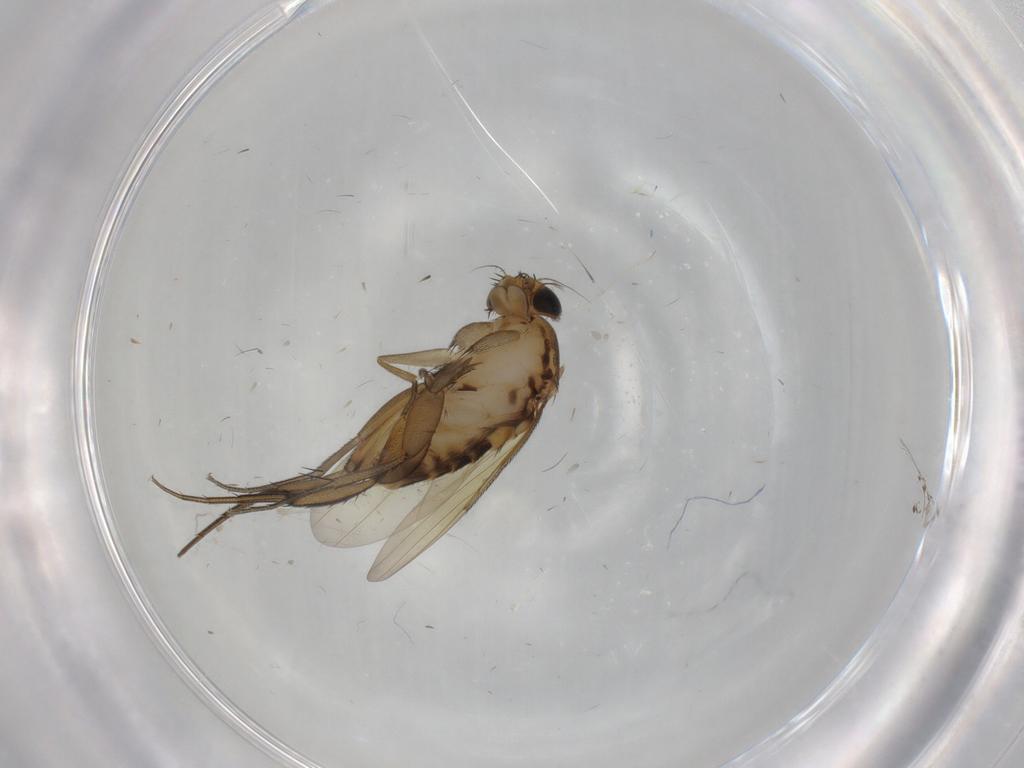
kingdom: Animalia
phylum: Arthropoda
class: Insecta
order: Diptera
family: Phoridae
